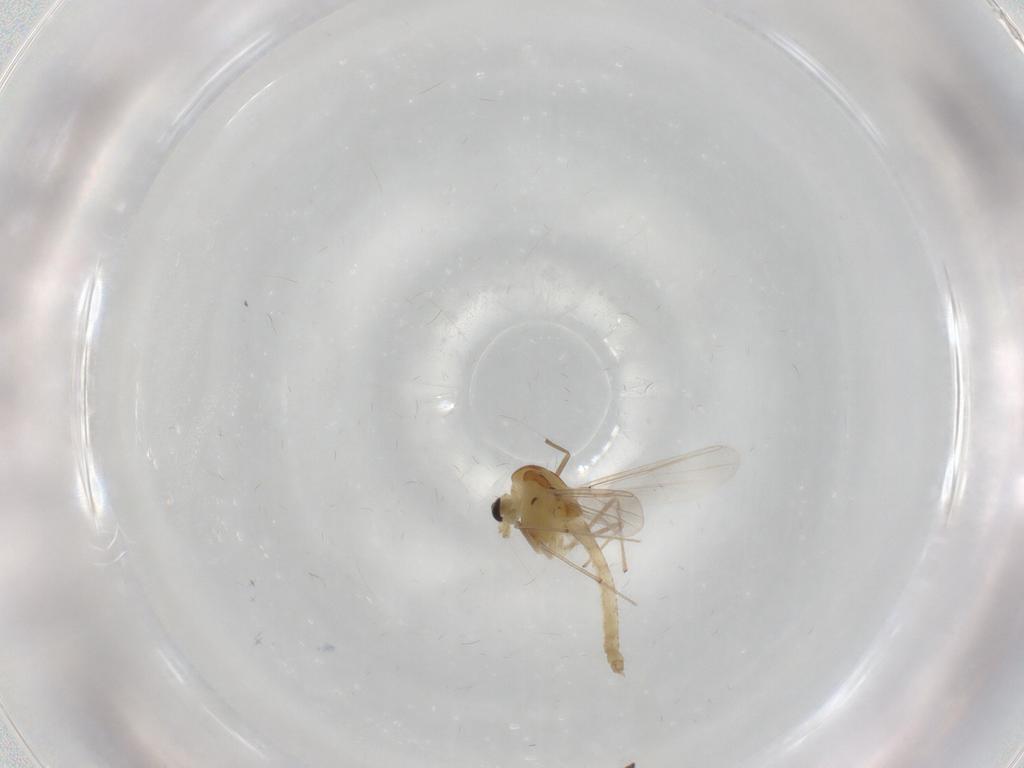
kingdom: Animalia
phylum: Arthropoda
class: Insecta
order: Diptera
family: Chironomidae
